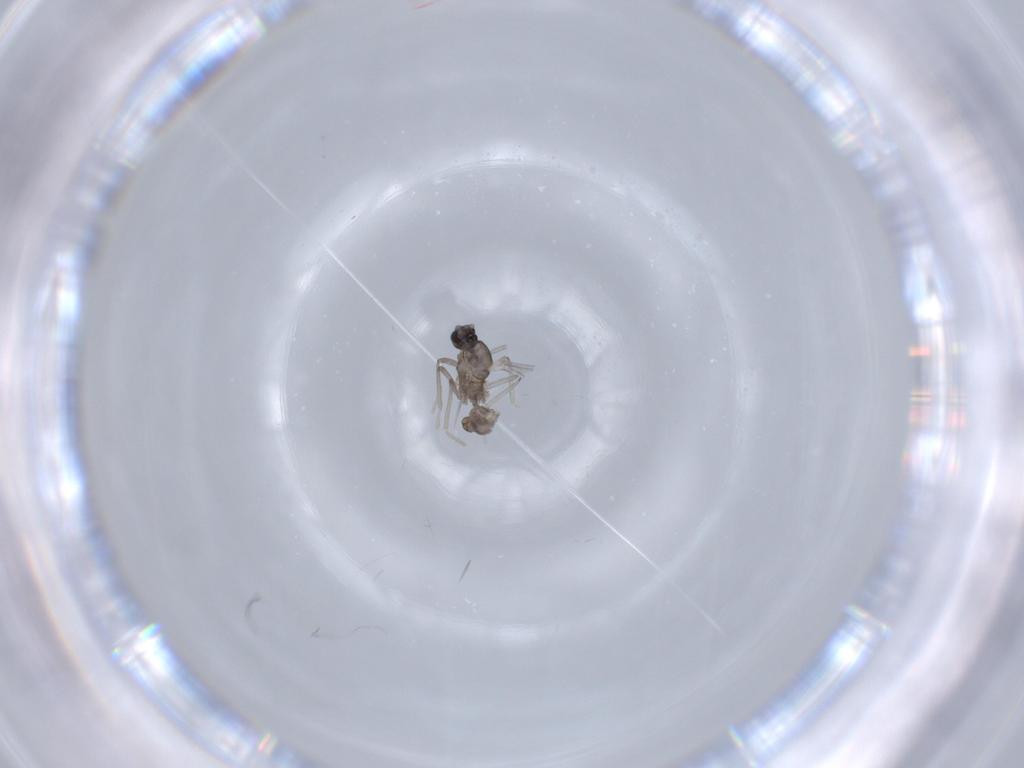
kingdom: Animalia
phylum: Arthropoda
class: Insecta
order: Diptera
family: Cecidomyiidae
